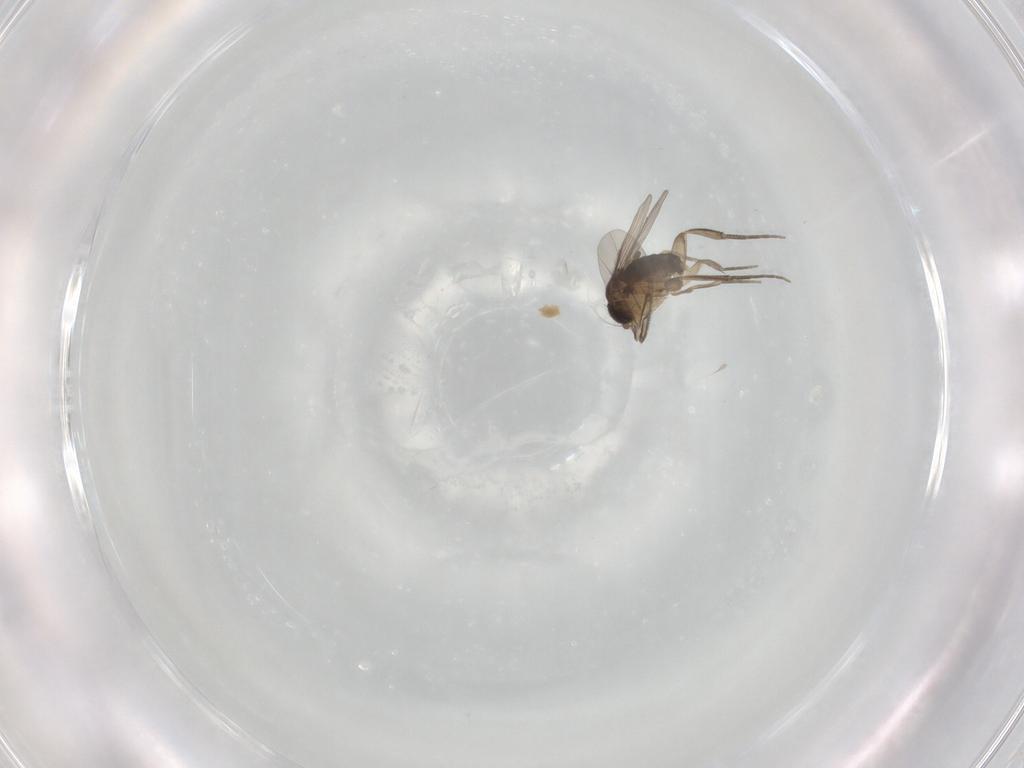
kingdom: Animalia
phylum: Arthropoda
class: Insecta
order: Diptera
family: Phoridae
